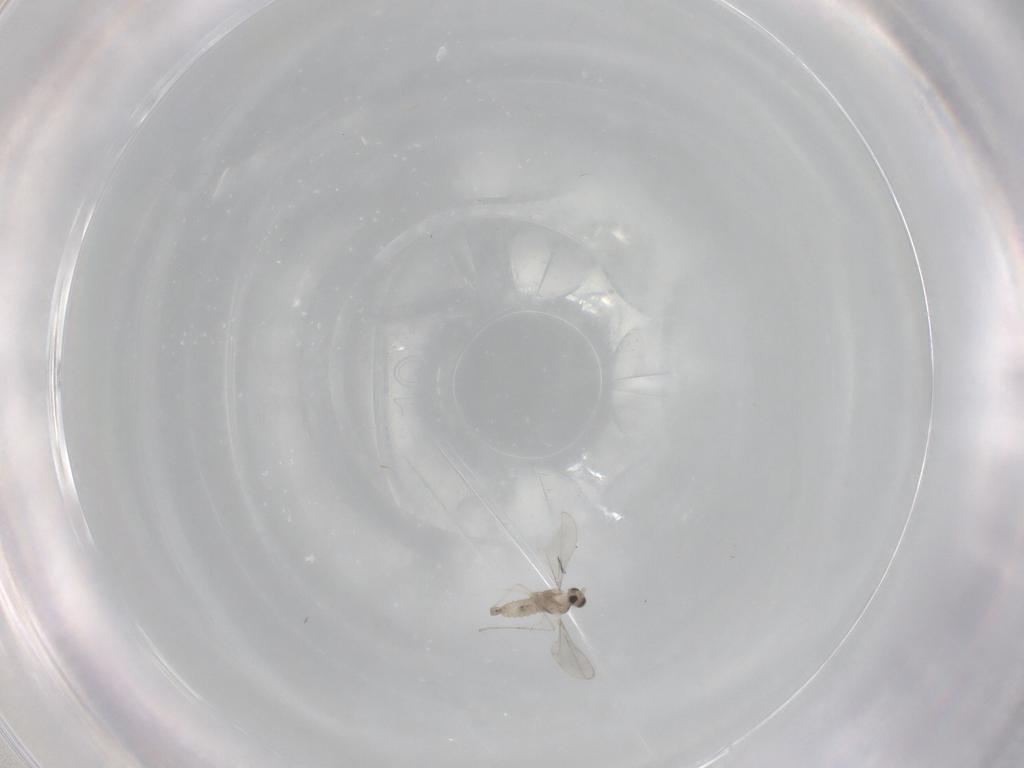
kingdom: Animalia
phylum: Arthropoda
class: Insecta
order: Diptera
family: Cecidomyiidae
